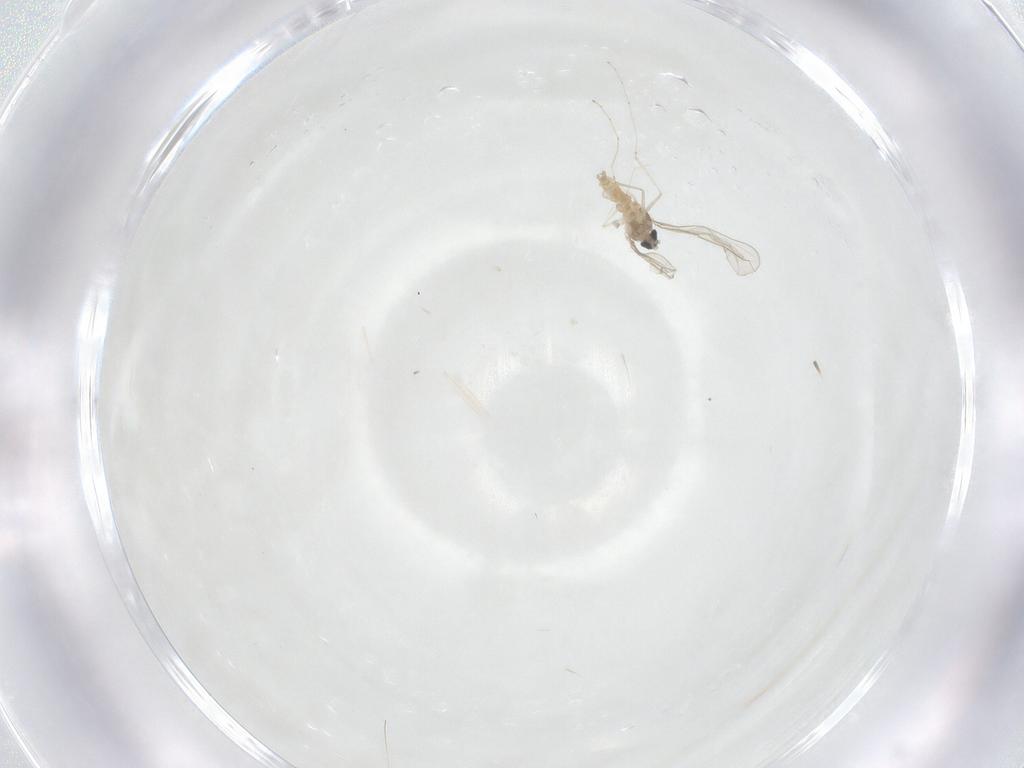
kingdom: Animalia
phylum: Arthropoda
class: Insecta
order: Diptera
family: Cecidomyiidae
